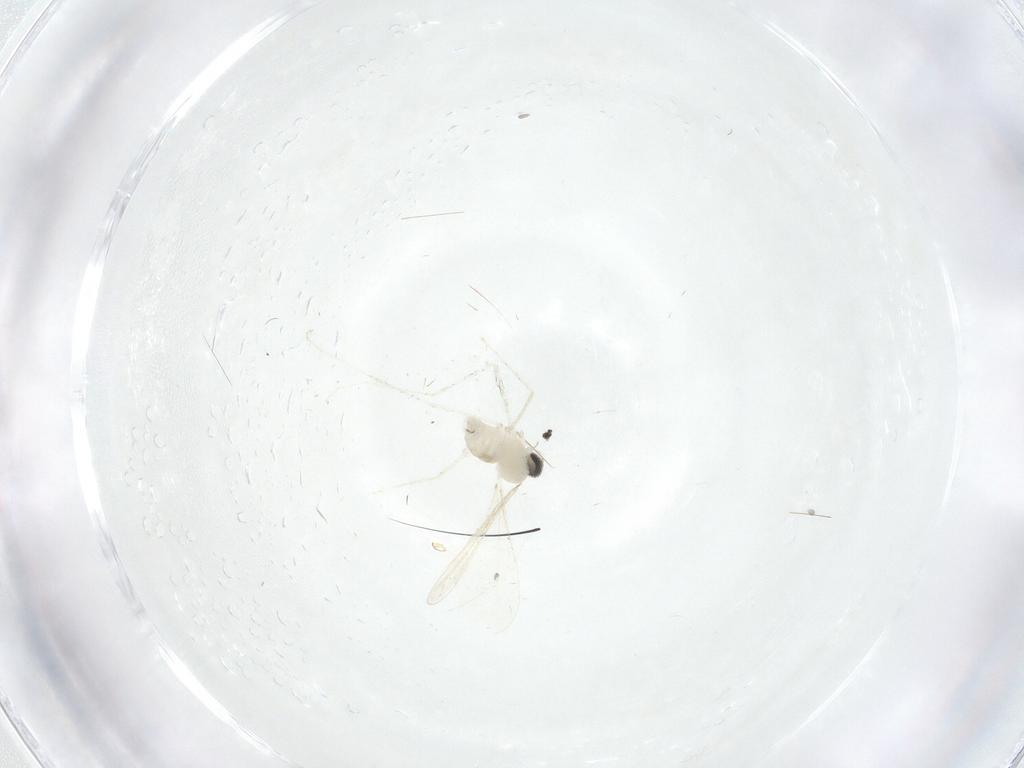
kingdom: Animalia
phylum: Arthropoda
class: Insecta
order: Diptera
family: Cecidomyiidae
